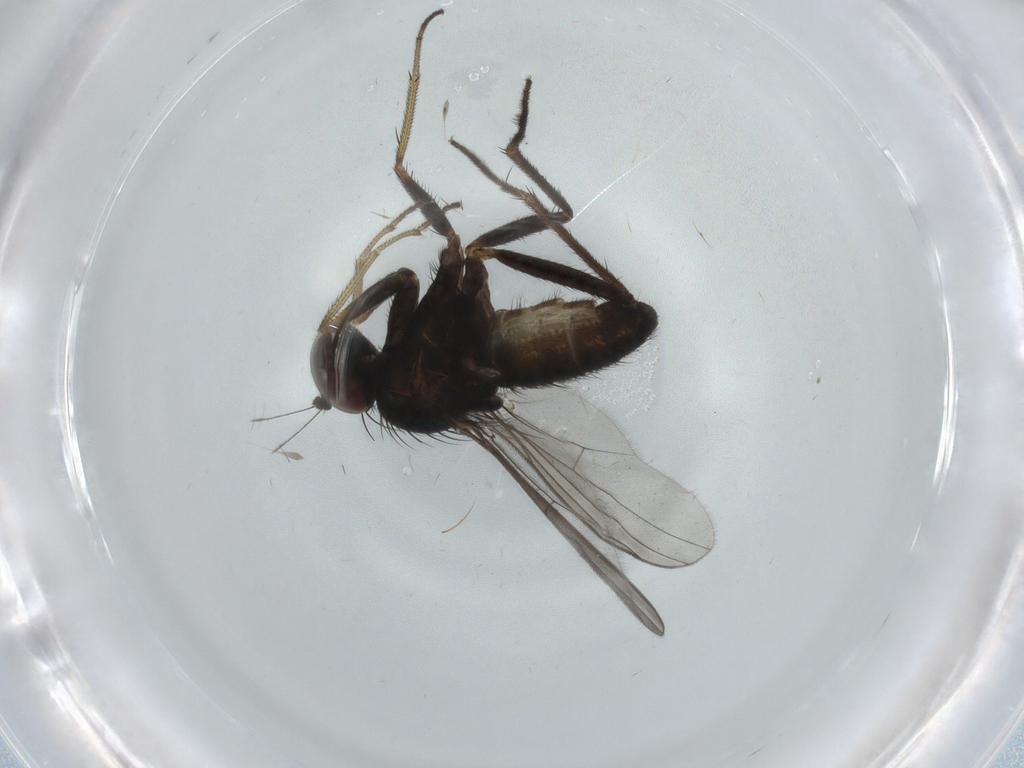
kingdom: Animalia
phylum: Arthropoda
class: Insecta
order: Diptera
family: Dolichopodidae
